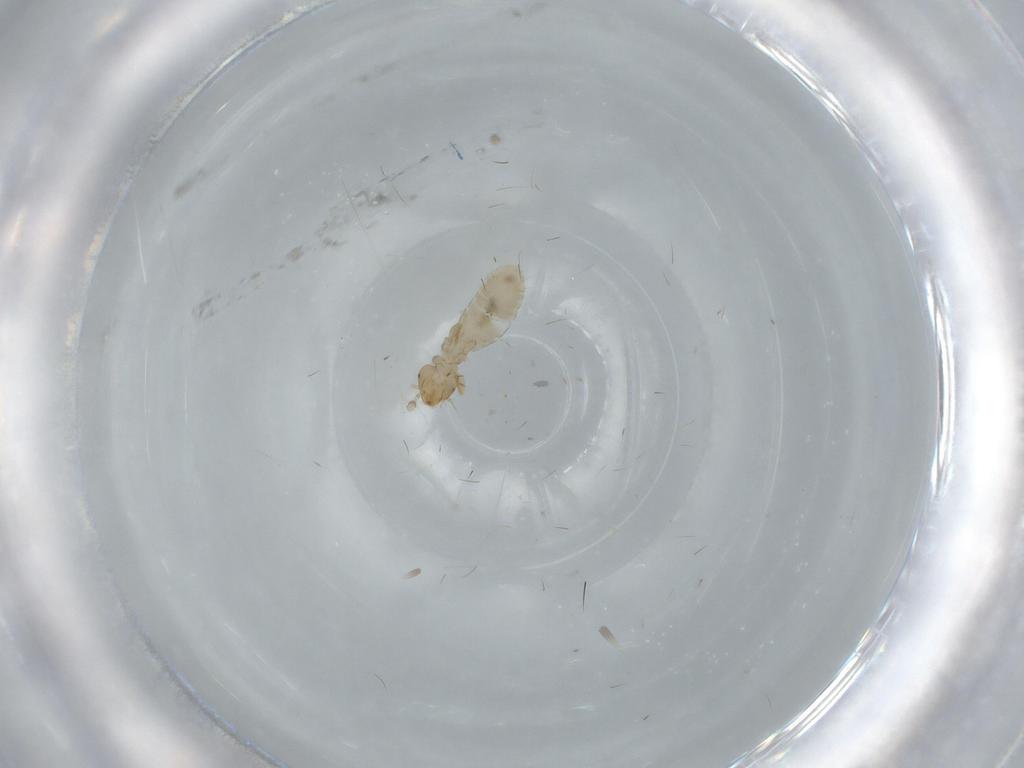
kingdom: Animalia
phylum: Arthropoda
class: Insecta
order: Psocodea
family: Liposcelididae
